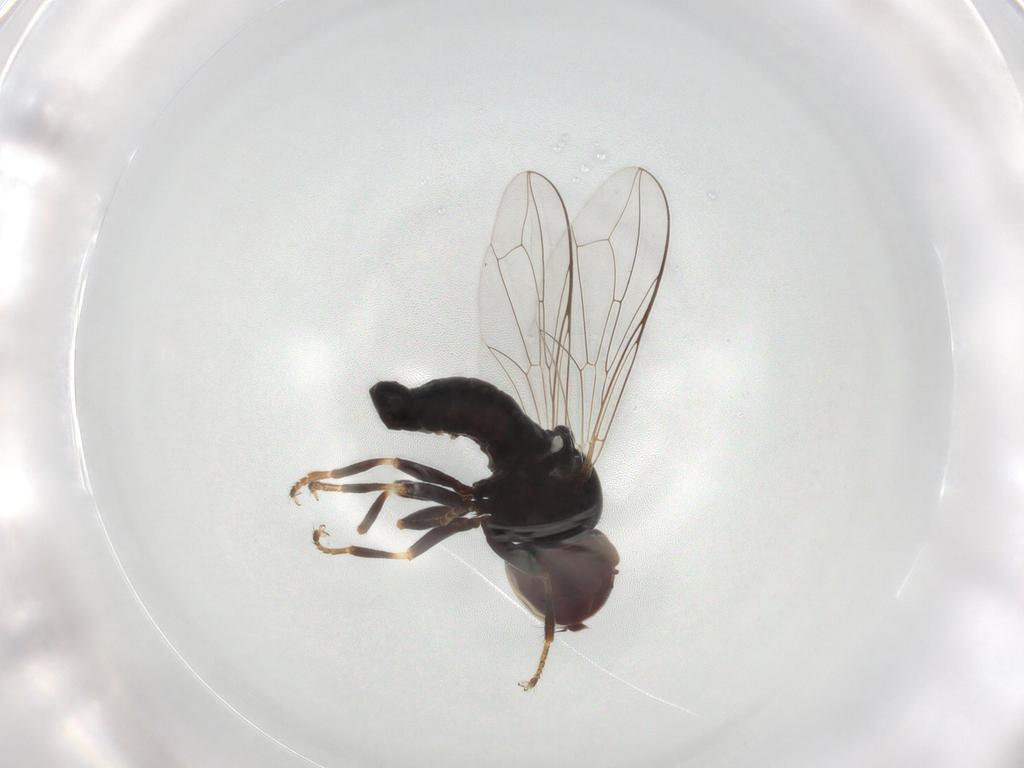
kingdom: Animalia
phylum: Arthropoda
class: Insecta
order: Diptera
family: Pipunculidae
